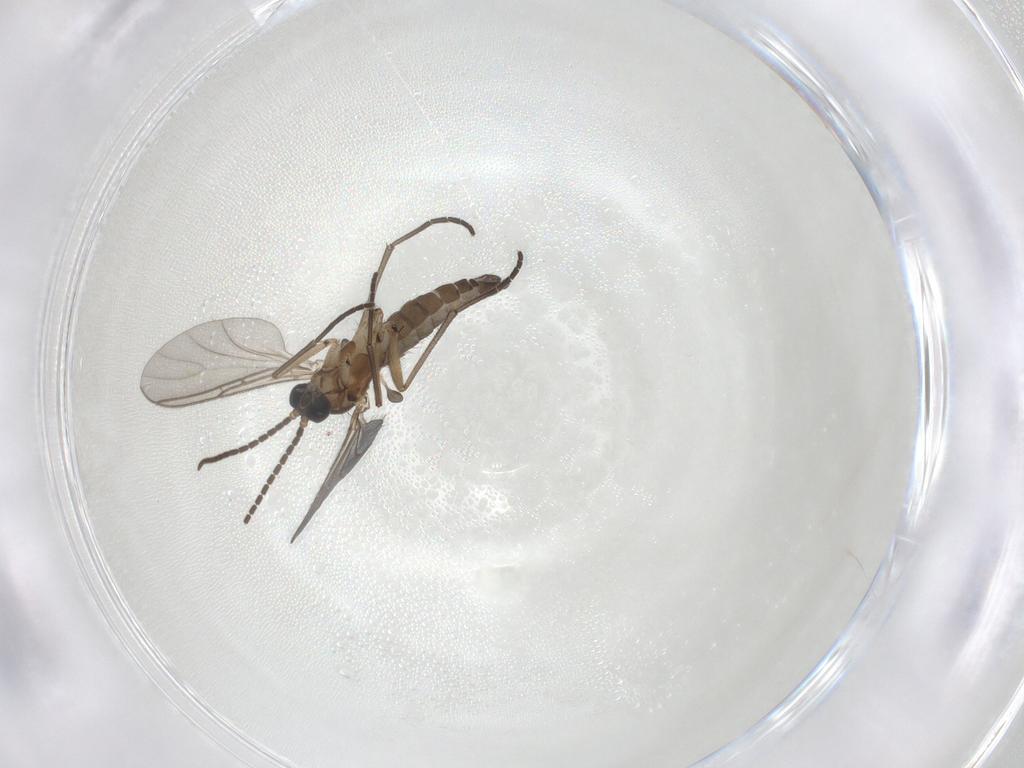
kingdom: Animalia
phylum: Arthropoda
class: Insecta
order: Diptera
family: Sciaridae
